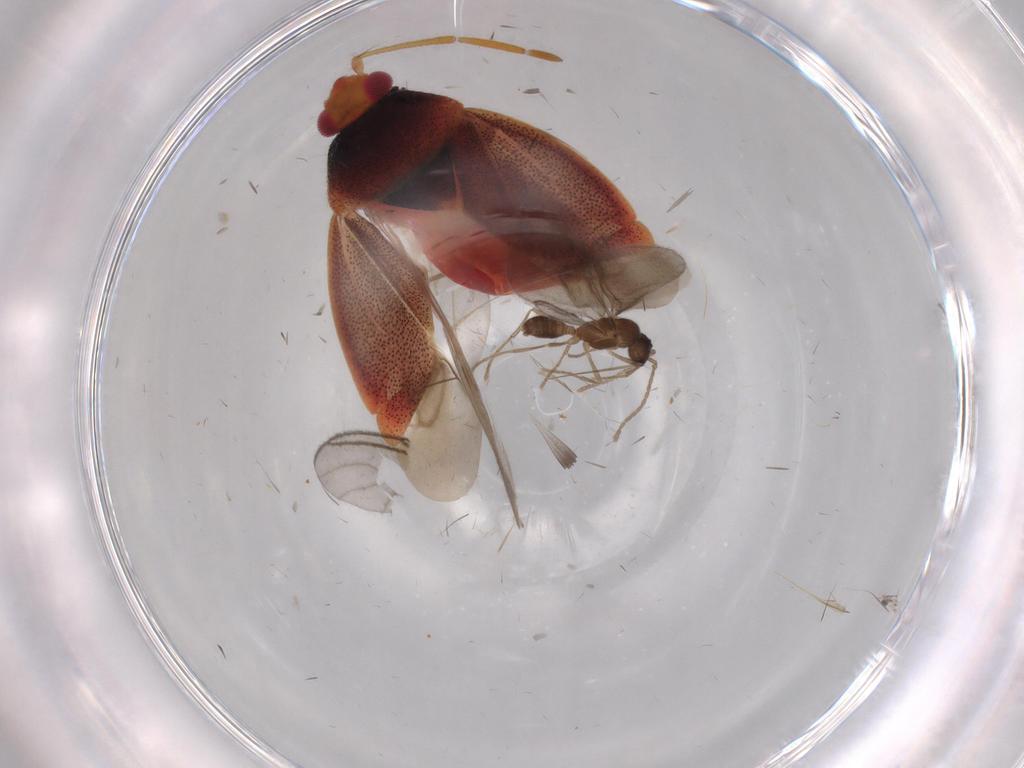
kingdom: Animalia
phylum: Arthropoda
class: Insecta
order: Hemiptera
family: Miridae
